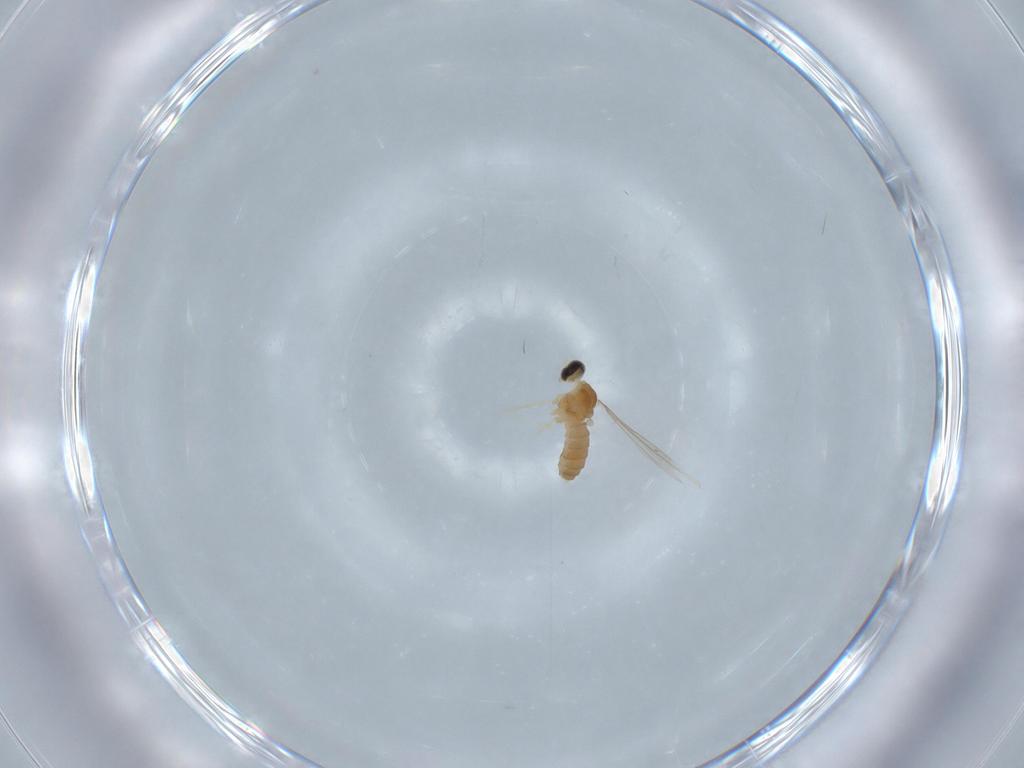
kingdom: Animalia
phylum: Arthropoda
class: Insecta
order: Diptera
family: Cecidomyiidae
